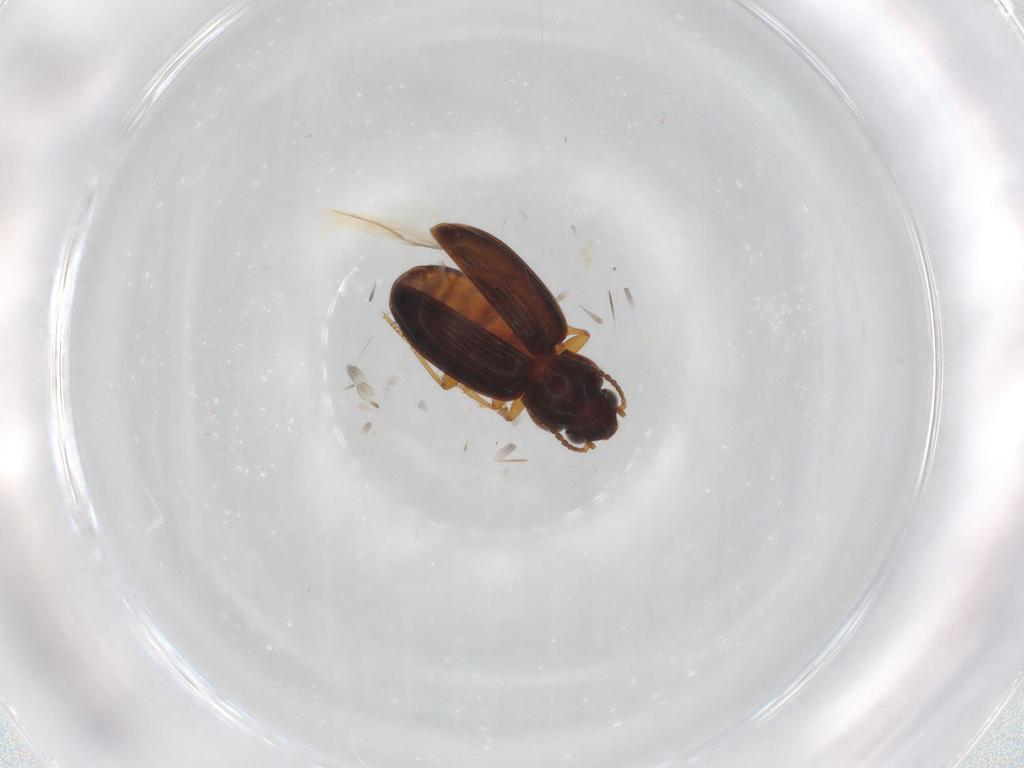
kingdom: Animalia
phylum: Arthropoda
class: Insecta
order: Coleoptera
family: Carabidae
